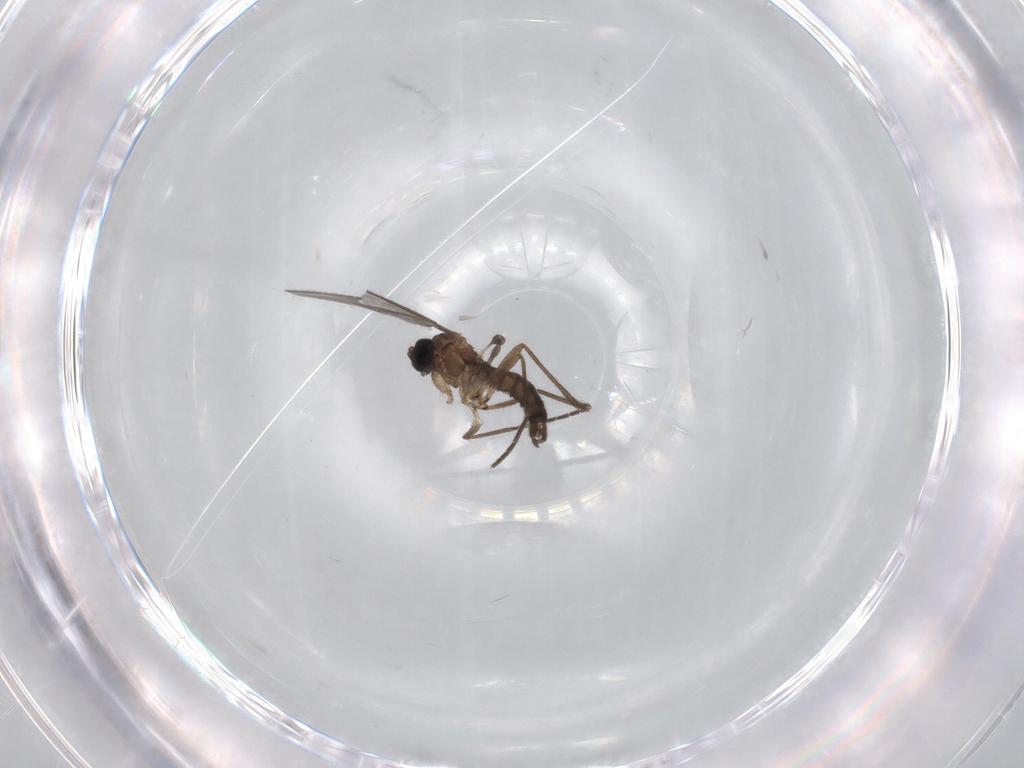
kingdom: Animalia
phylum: Arthropoda
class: Insecta
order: Diptera
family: Sciaridae
